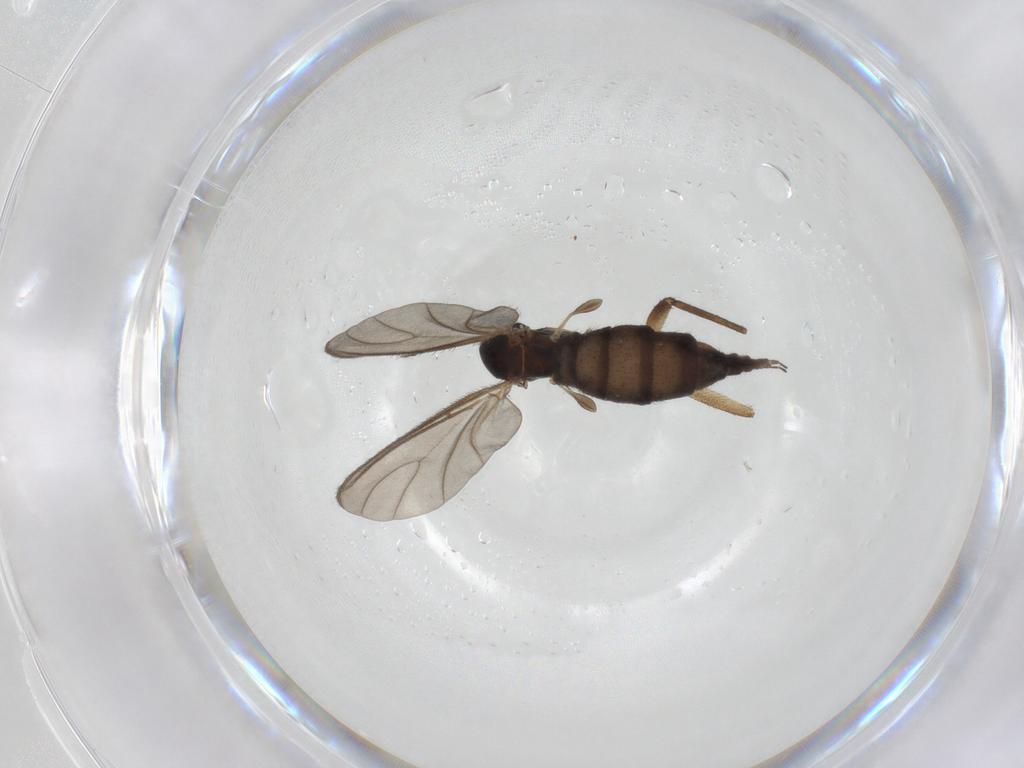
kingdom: Animalia
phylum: Arthropoda
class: Insecta
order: Diptera
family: Sciaridae
